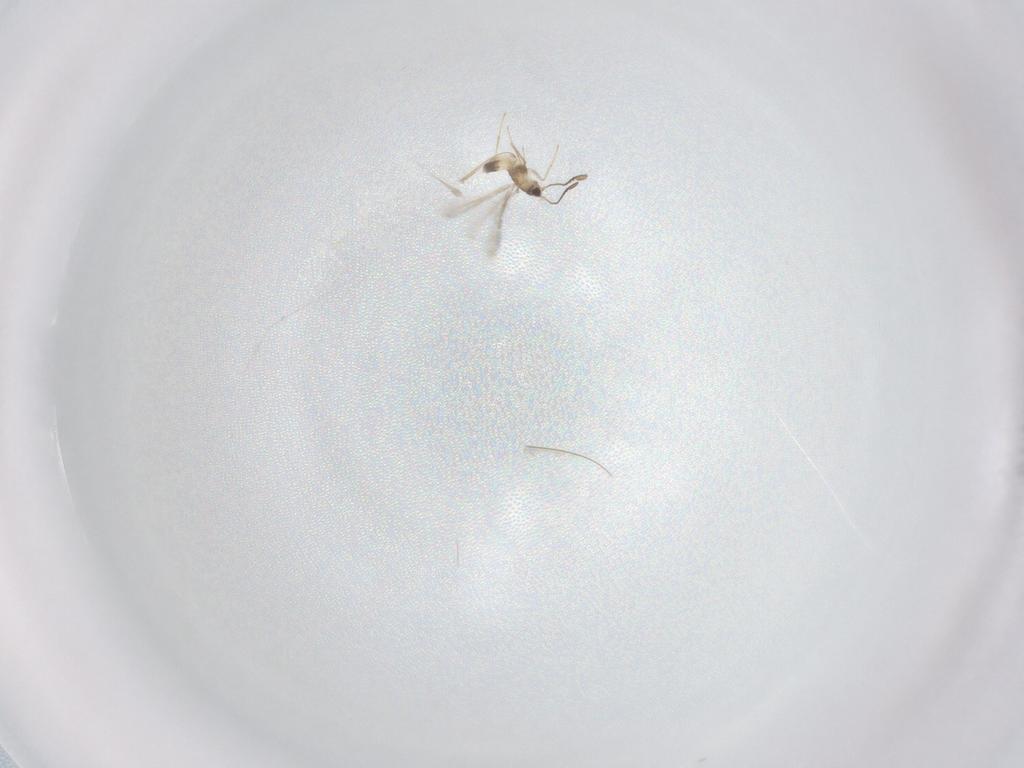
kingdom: Animalia
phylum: Arthropoda
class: Insecta
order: Hymenoptera
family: Mymaridae
